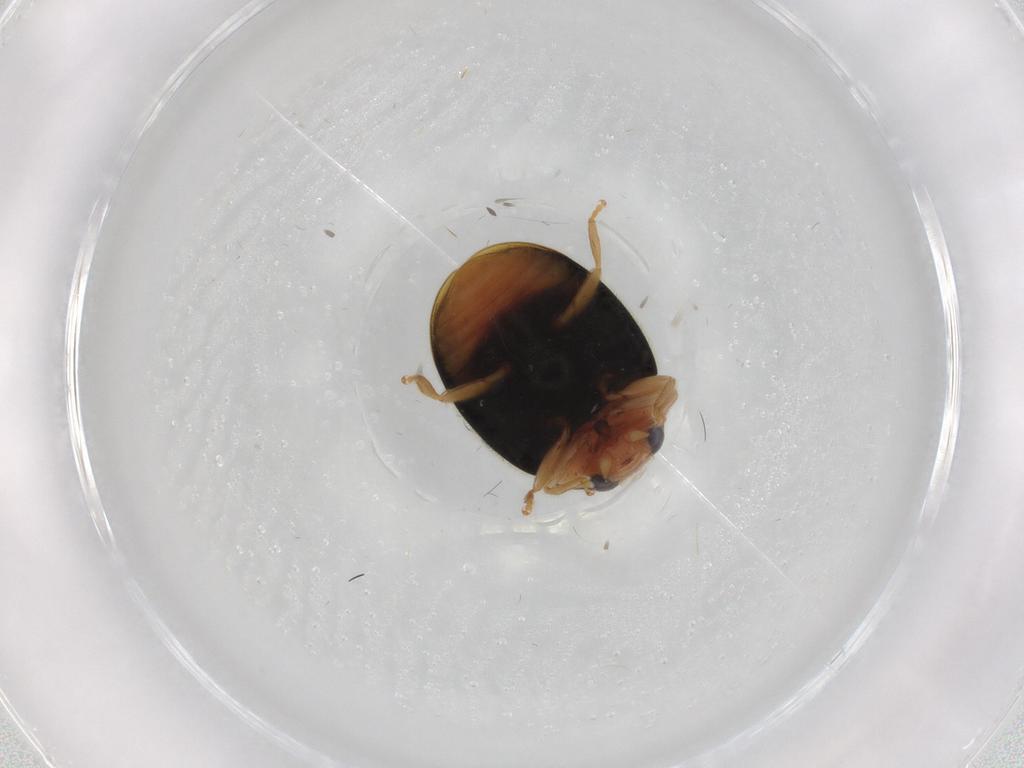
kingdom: Animalia
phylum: Arthropoda
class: Insecta
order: Coleoptera
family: Coccinellidae
